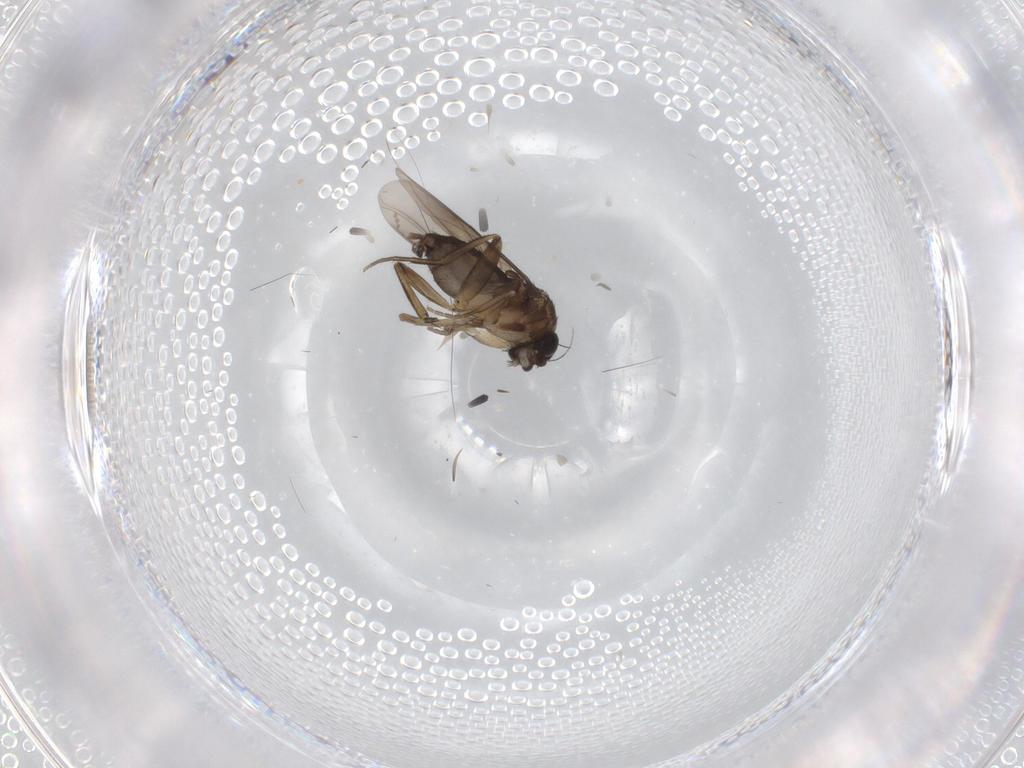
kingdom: Animalia
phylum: Arthropoda
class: Insecta
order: Diptera
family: Phoridae
